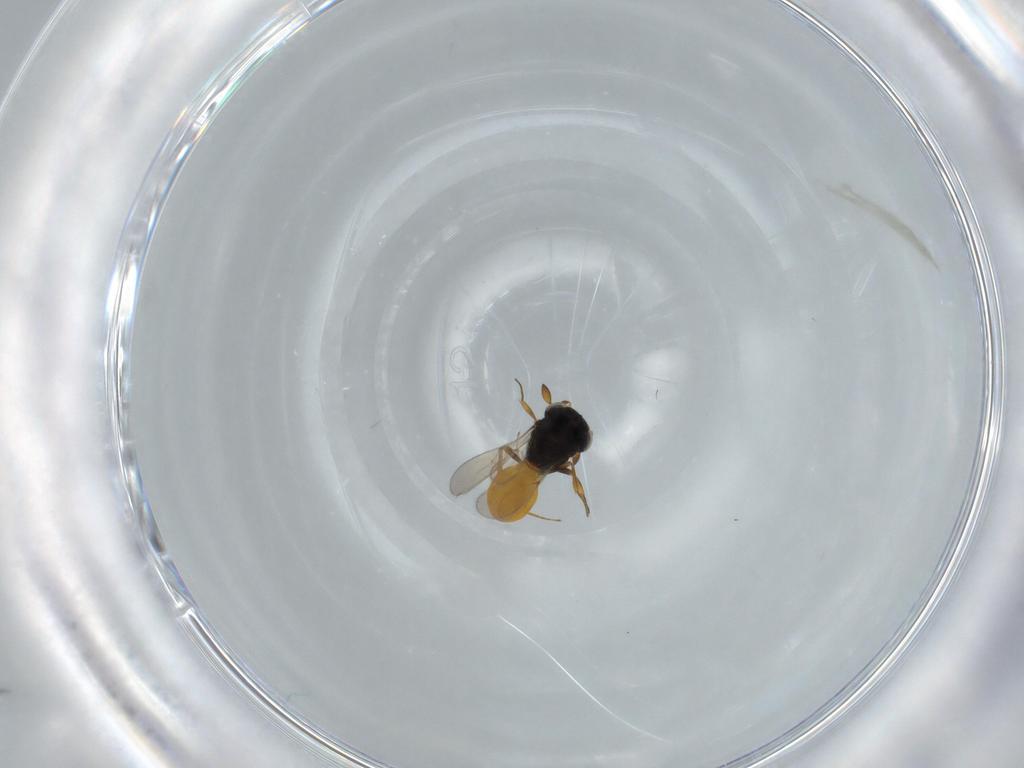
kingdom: Animalia
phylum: Arthropoda
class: Insecta
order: Hymenoptera
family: Scelionidae
